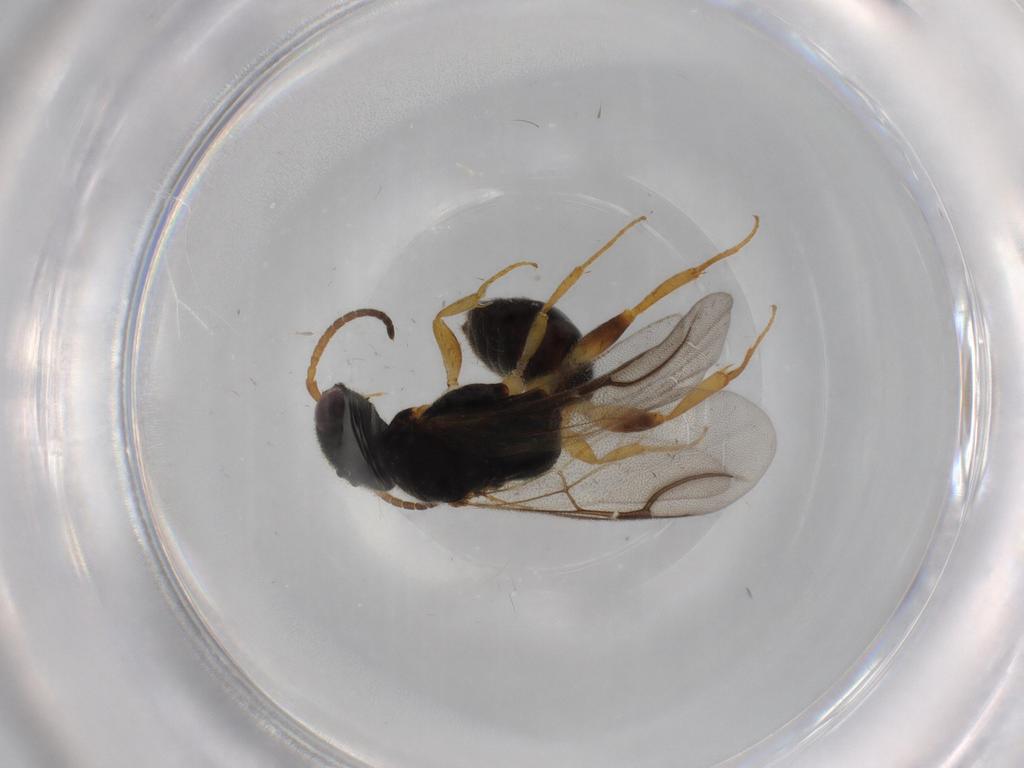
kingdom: Animalia
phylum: Arthropoda
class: Insecta
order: Hymenoptera
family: Bethylidae
